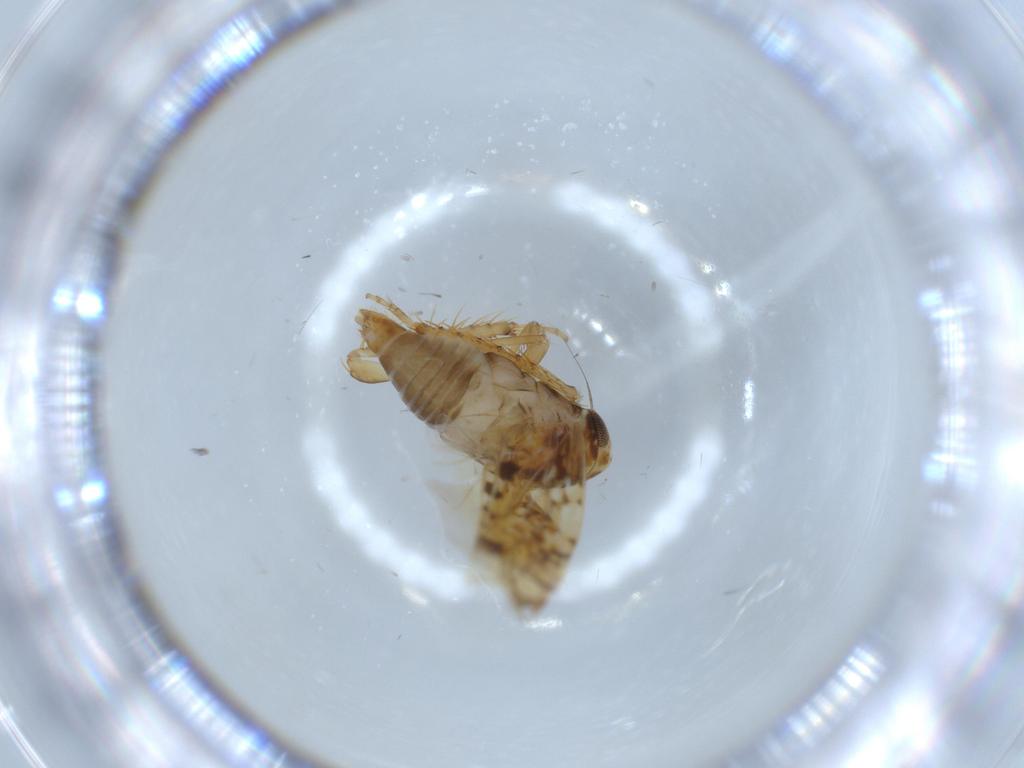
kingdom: Animalia
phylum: Arthropoda
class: Insecta
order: Hemiptera
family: Cicadellidae
